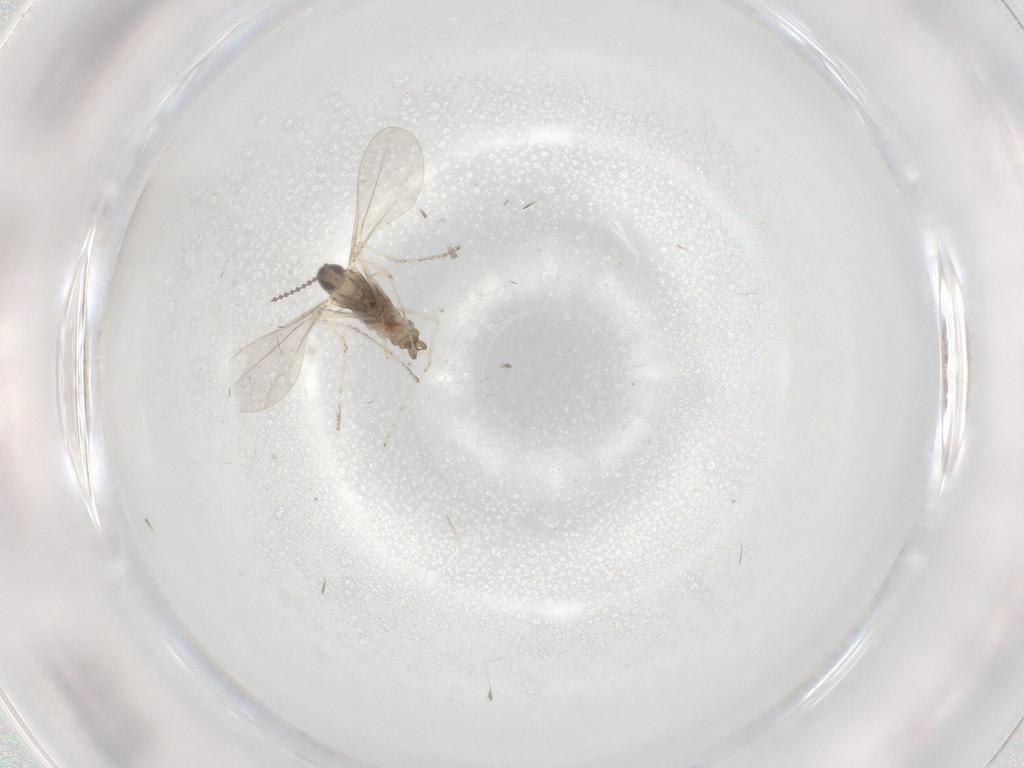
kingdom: Animalia
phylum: Arthropoda
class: Insecta
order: Diptera
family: Cecidomyiidae
